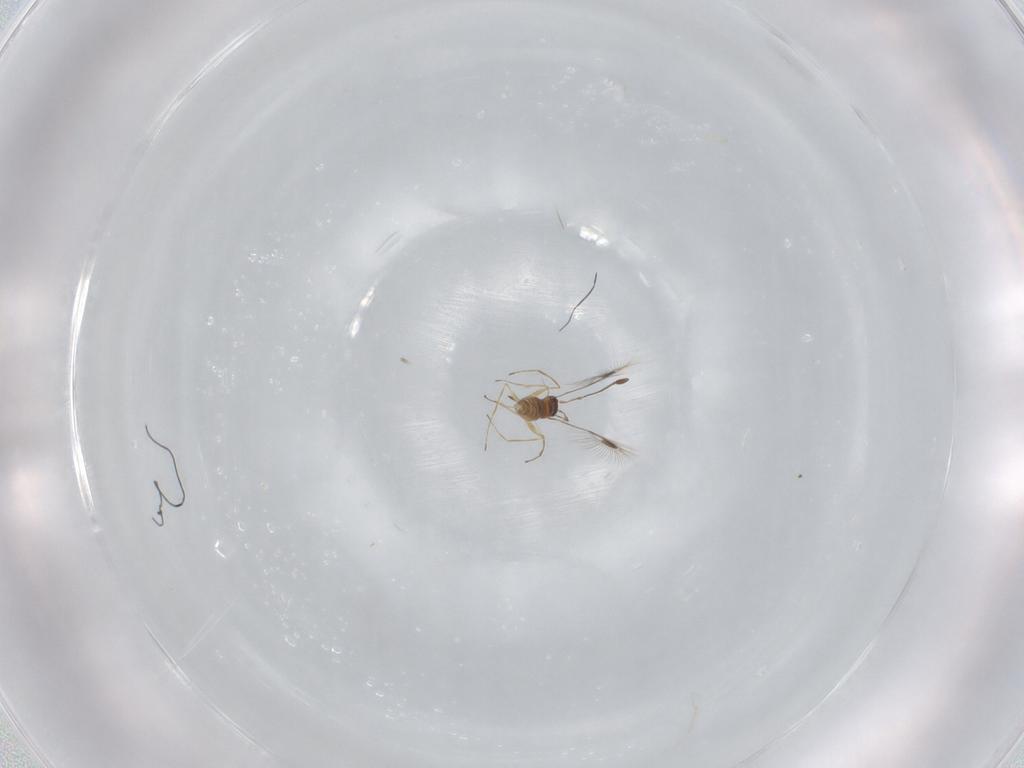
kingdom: Animalia
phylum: Arthropoda
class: Insecta
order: Hymenoptera
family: Mymaridae
